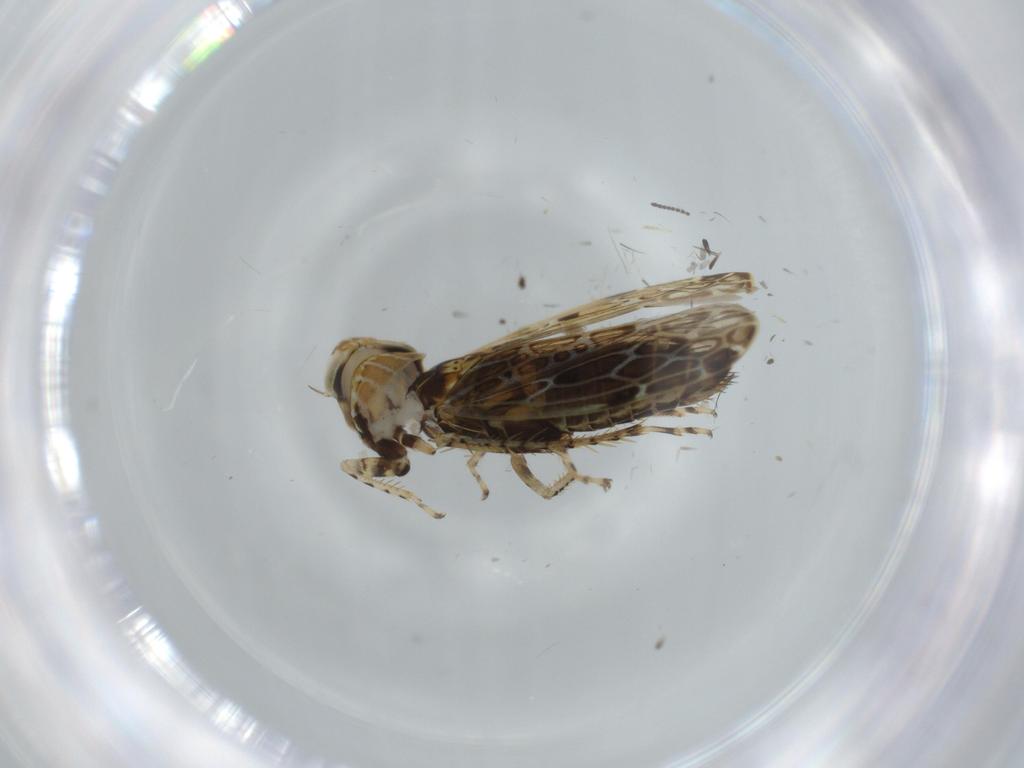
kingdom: Animalia
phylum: Arthropoda
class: Insecta
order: Hemiptera
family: Cicadellidae
